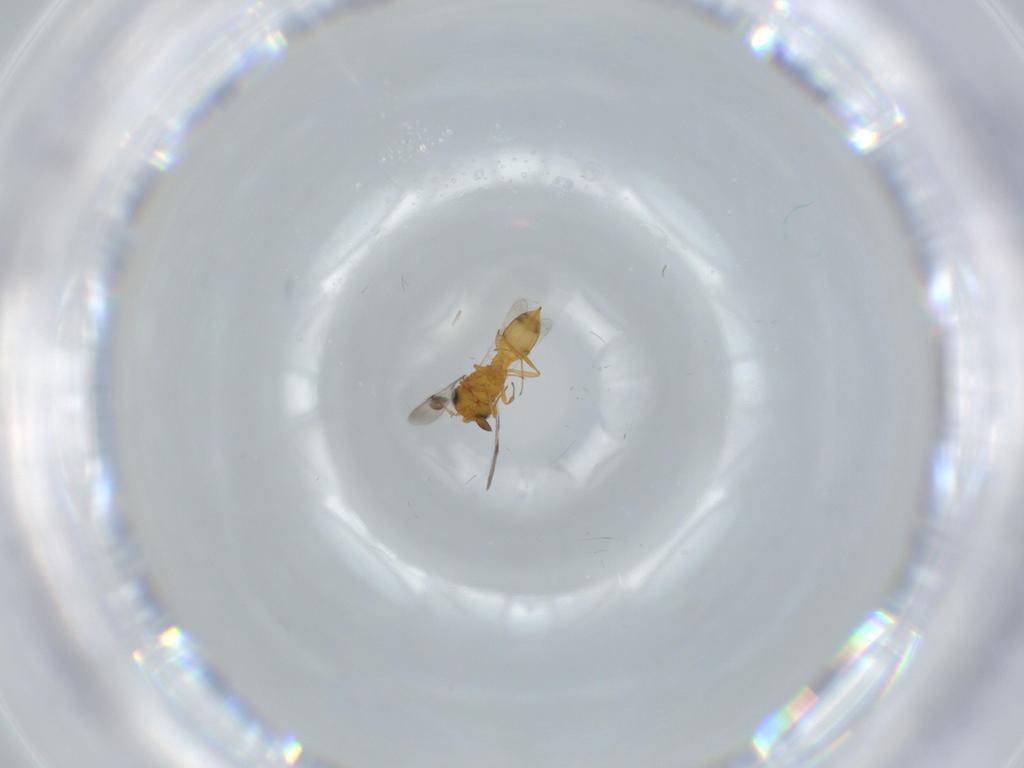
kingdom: Animalia
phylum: Arthropoda
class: Insecta
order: Hymenoptera
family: Scelionidae
